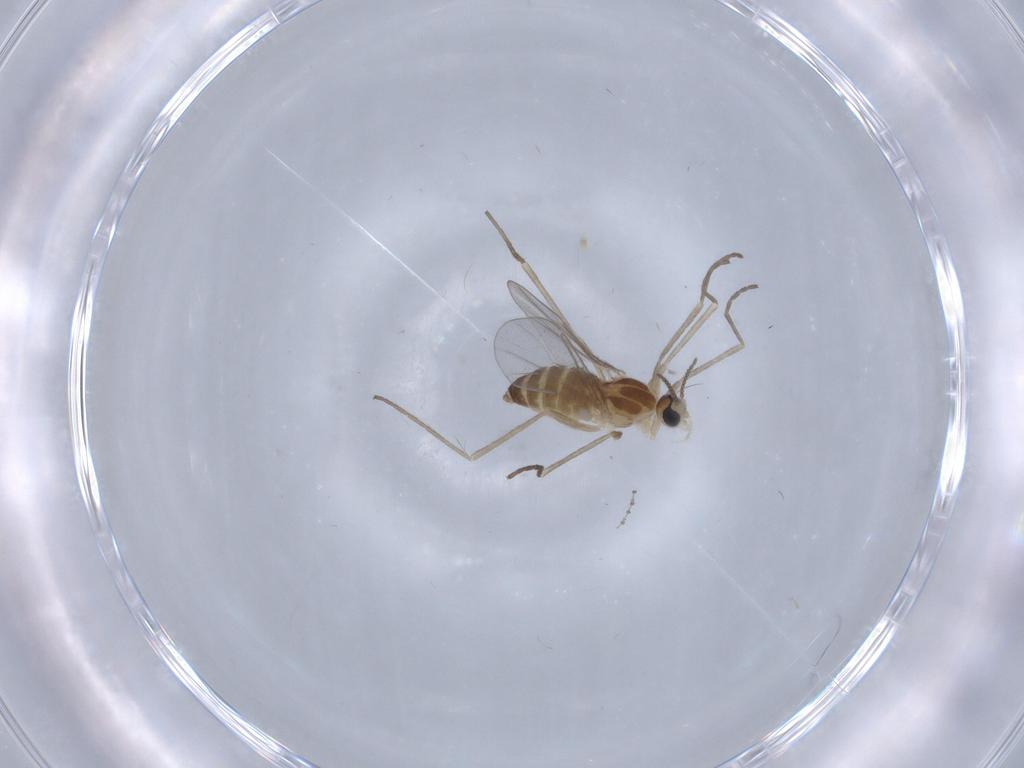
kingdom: Animalia
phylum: Arthropoda
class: Insecta
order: Diptera
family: Cecidomyiidae
